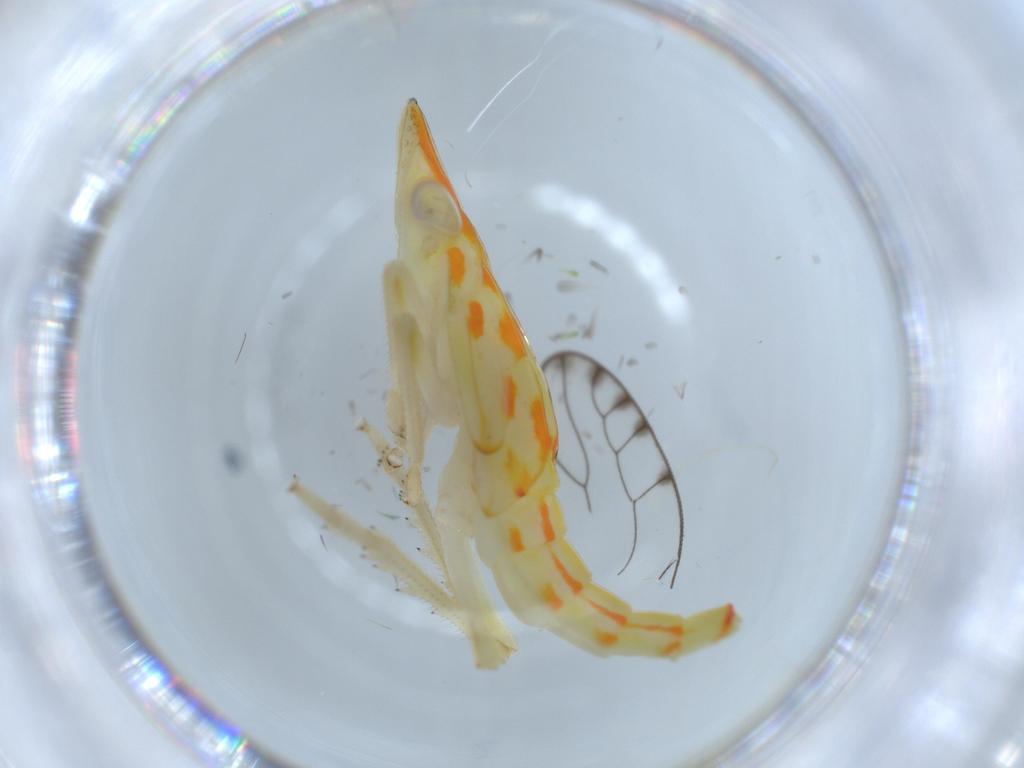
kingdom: Animalia
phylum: Arthropoda
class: Insecta
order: Hemiptera
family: Tropiduchidae
